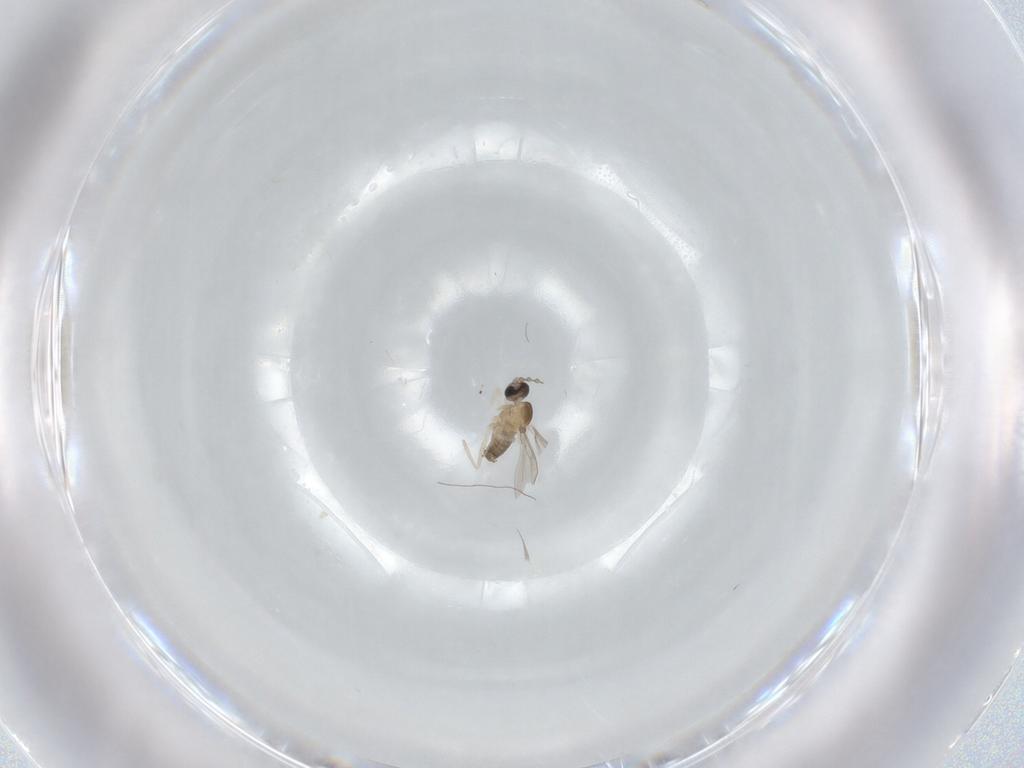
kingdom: Animalia
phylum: Arthropoda
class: Insecta
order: Diptera
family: Cecidomyiidae
